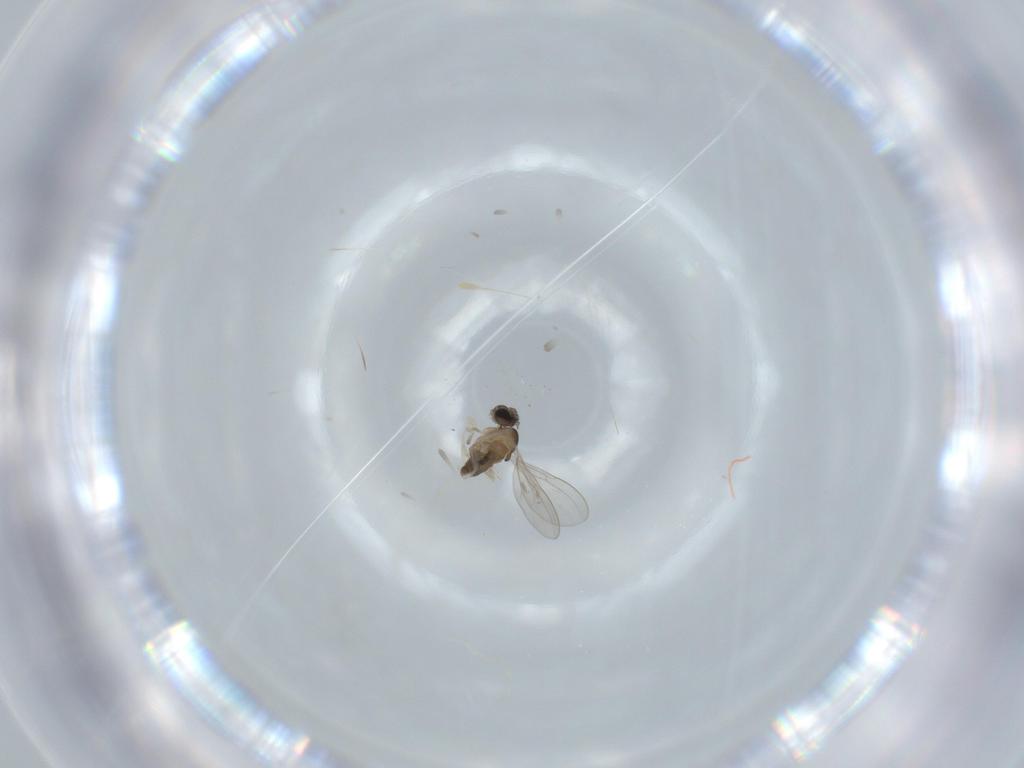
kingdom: Animalia
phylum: Arthropoda
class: Insecta
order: Diptera
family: Cecidomyiidae
